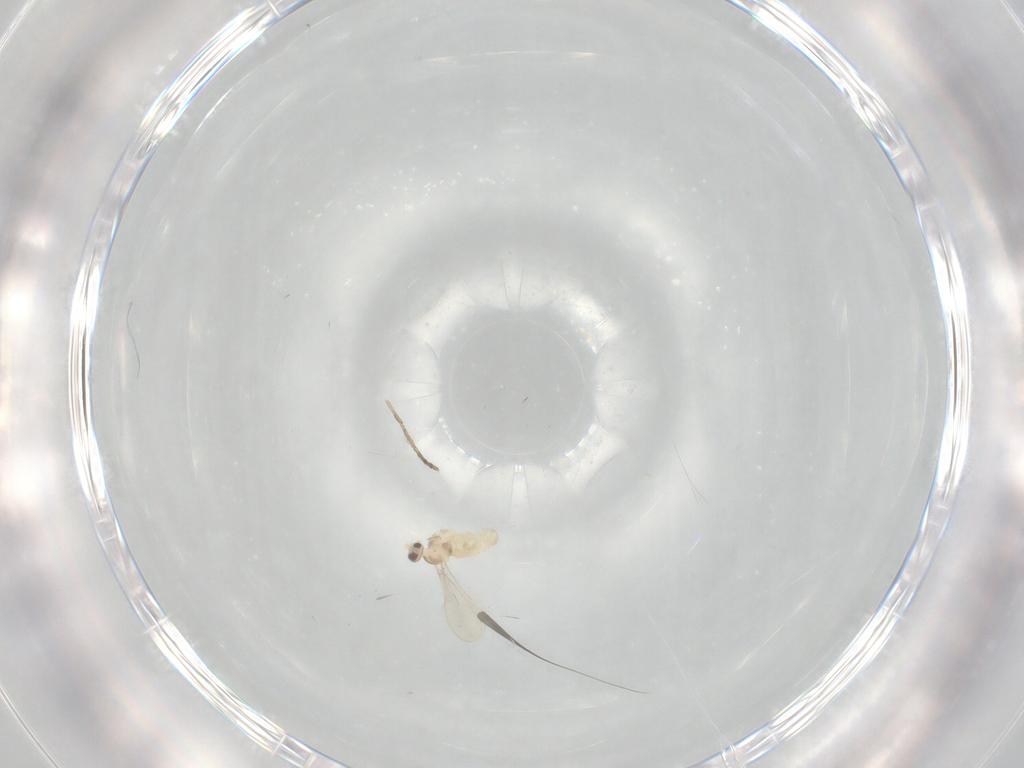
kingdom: Animalia
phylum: Arthropoda
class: Insecta
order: Diptera
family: Cecidomyiidae
